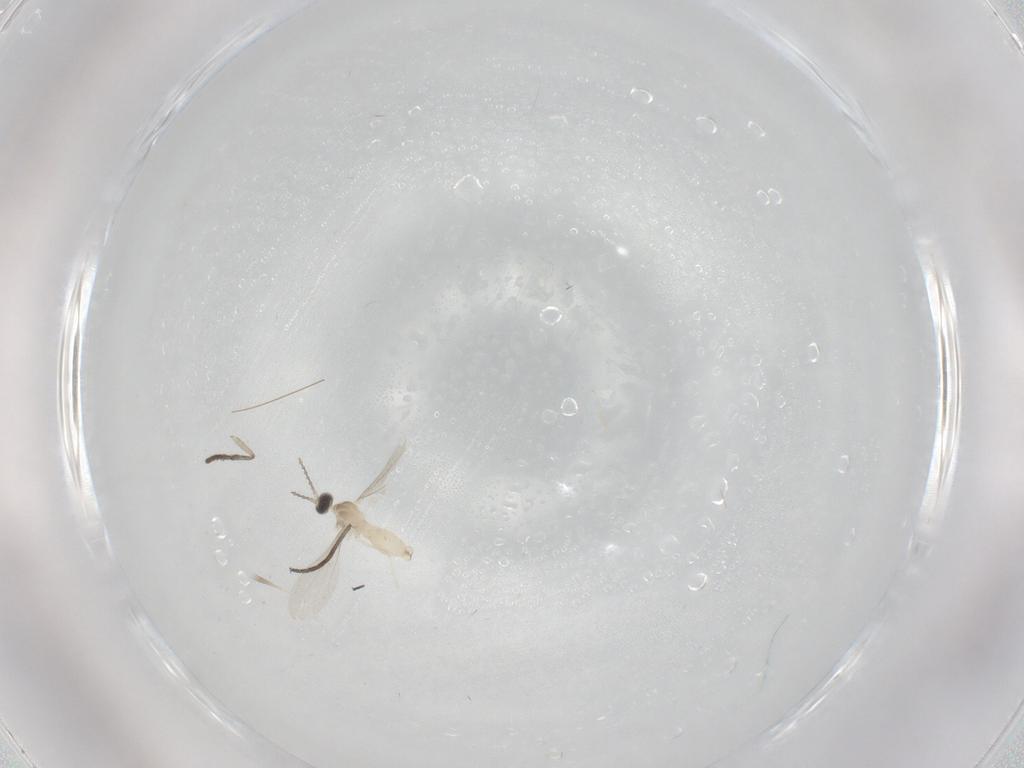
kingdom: Animalia
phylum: Arthropoda
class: Insecta
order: Diptera
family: Cecidomyiidae
